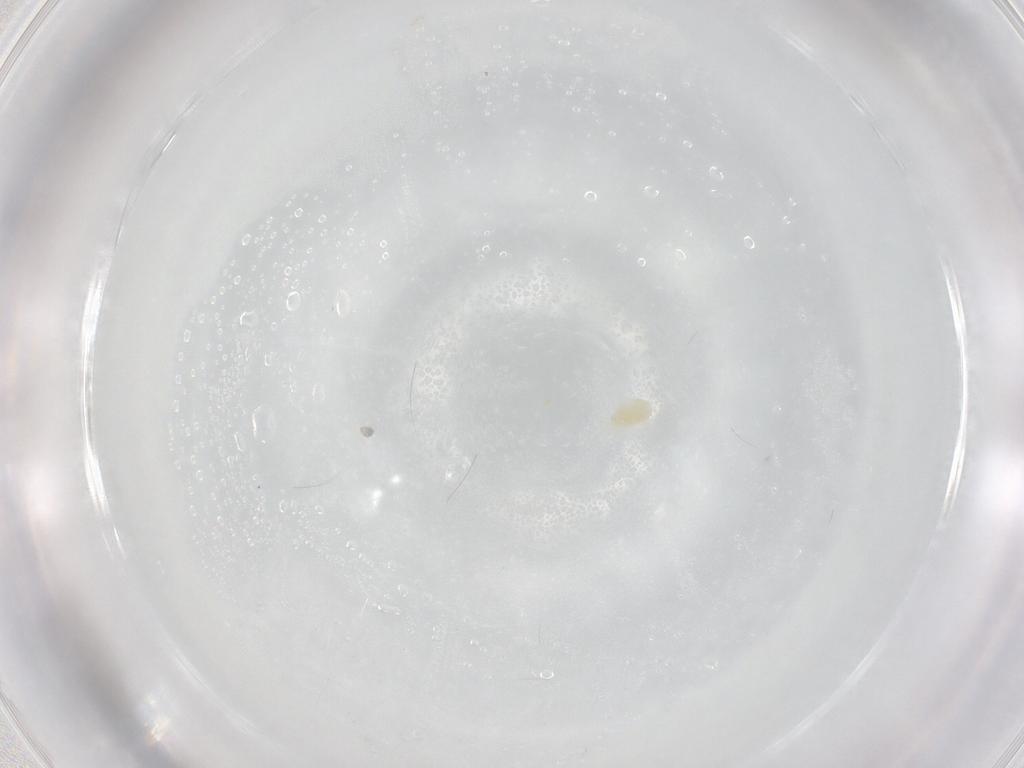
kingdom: Animalia
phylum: Arthropoda
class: Arachnida
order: Trombidiformes
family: Eupodidae
